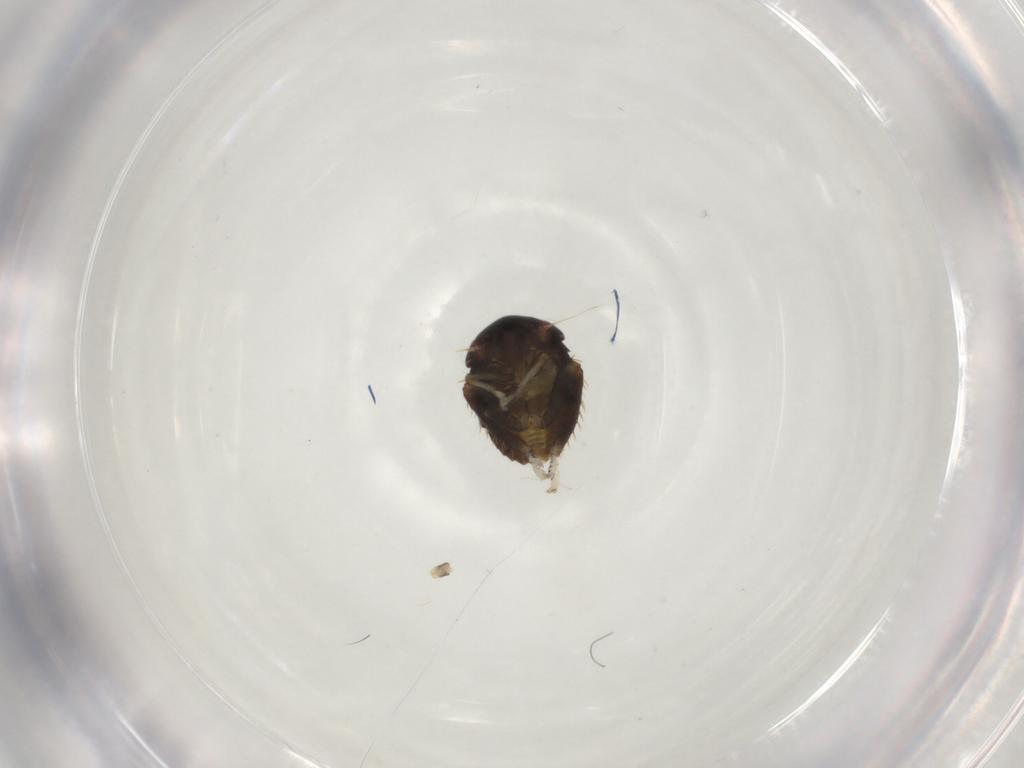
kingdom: Animalia
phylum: Arthropoda
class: Insecta
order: Hemiptera
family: Cicadellidae
